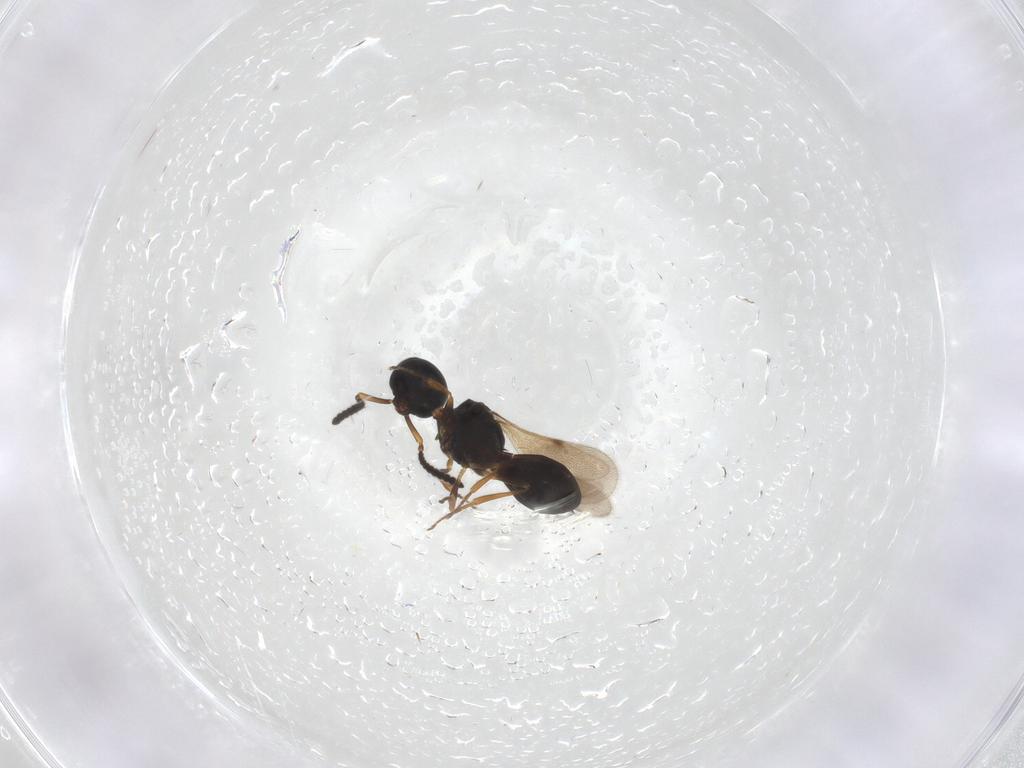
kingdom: Animalia
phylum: Arthropoda
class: Insecta
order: Hymenoptera
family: Scelionidae
